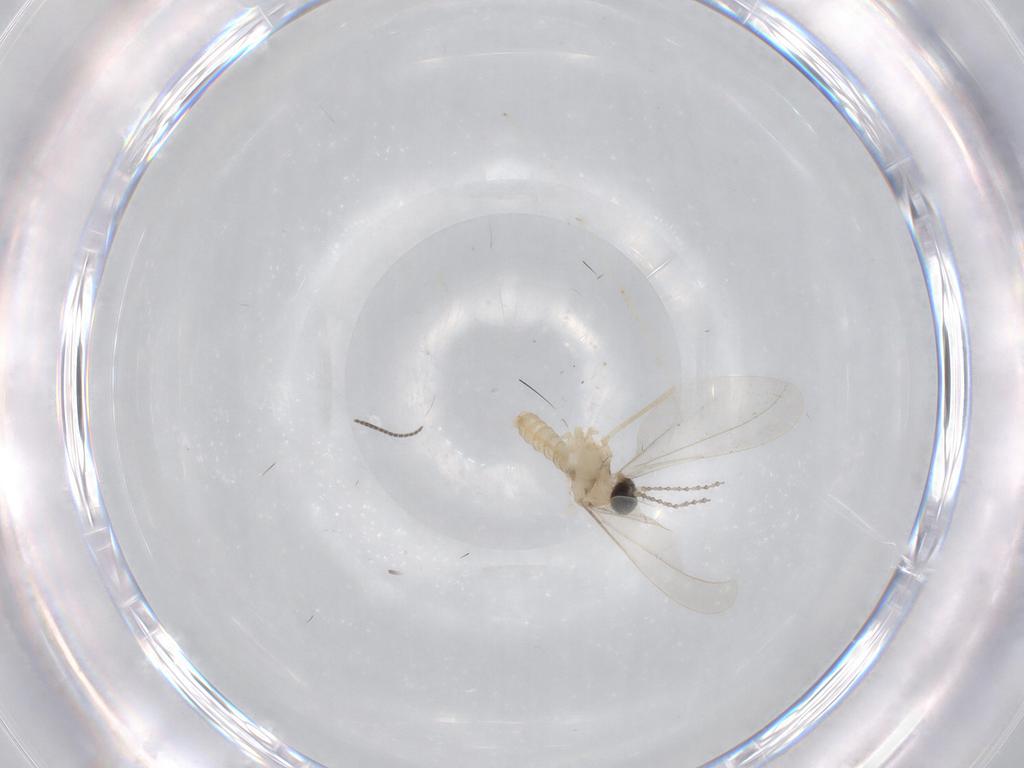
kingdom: Animalia
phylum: Arthropoda
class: Insecta
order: Diptera
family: Cecidomyiidae
